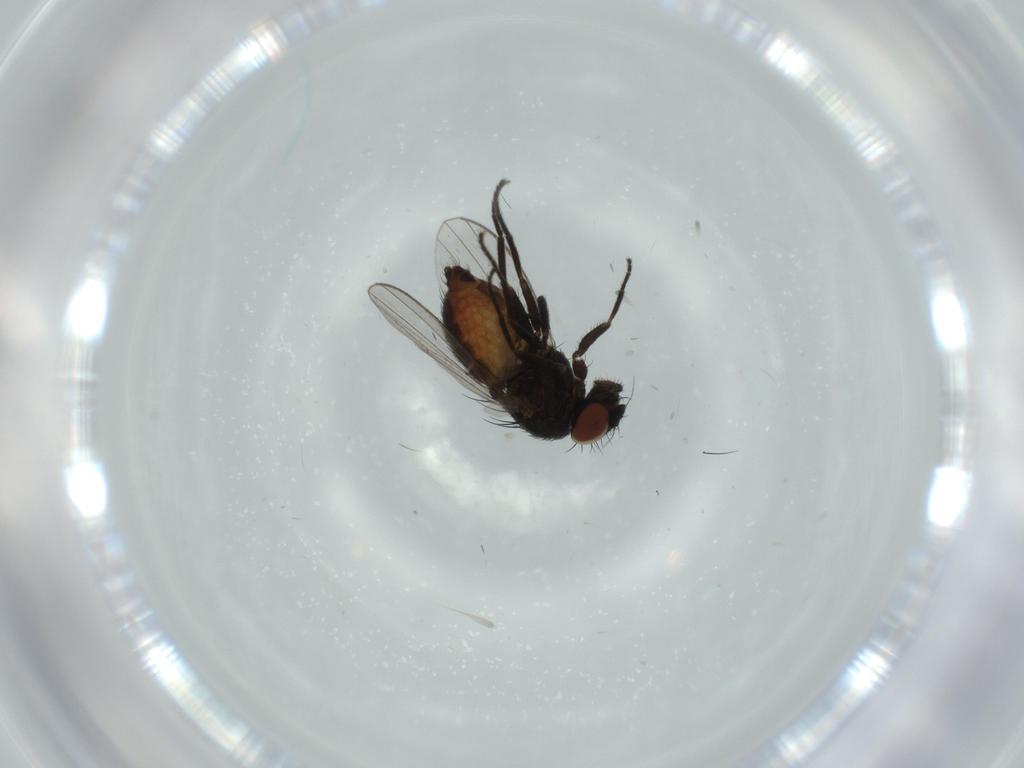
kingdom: Animalia
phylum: Arthropoda
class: Insecta
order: Diptera
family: Milichiidae
